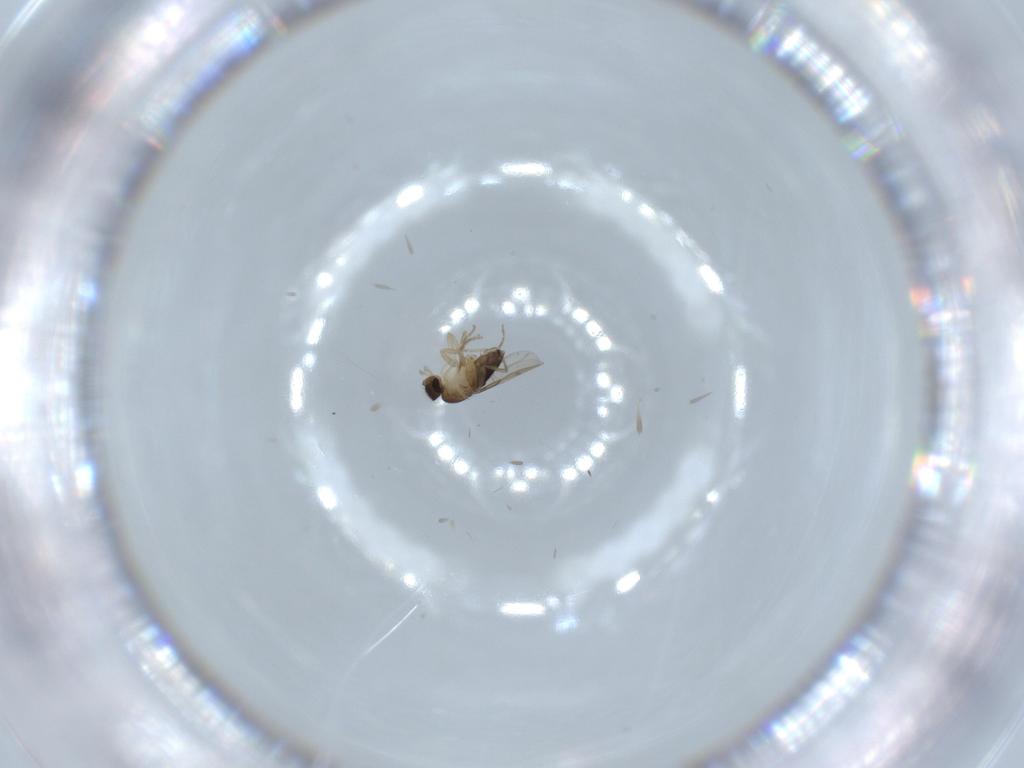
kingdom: Animalia
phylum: Arthropoda
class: Insecta
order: Diptera
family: Phoridae
